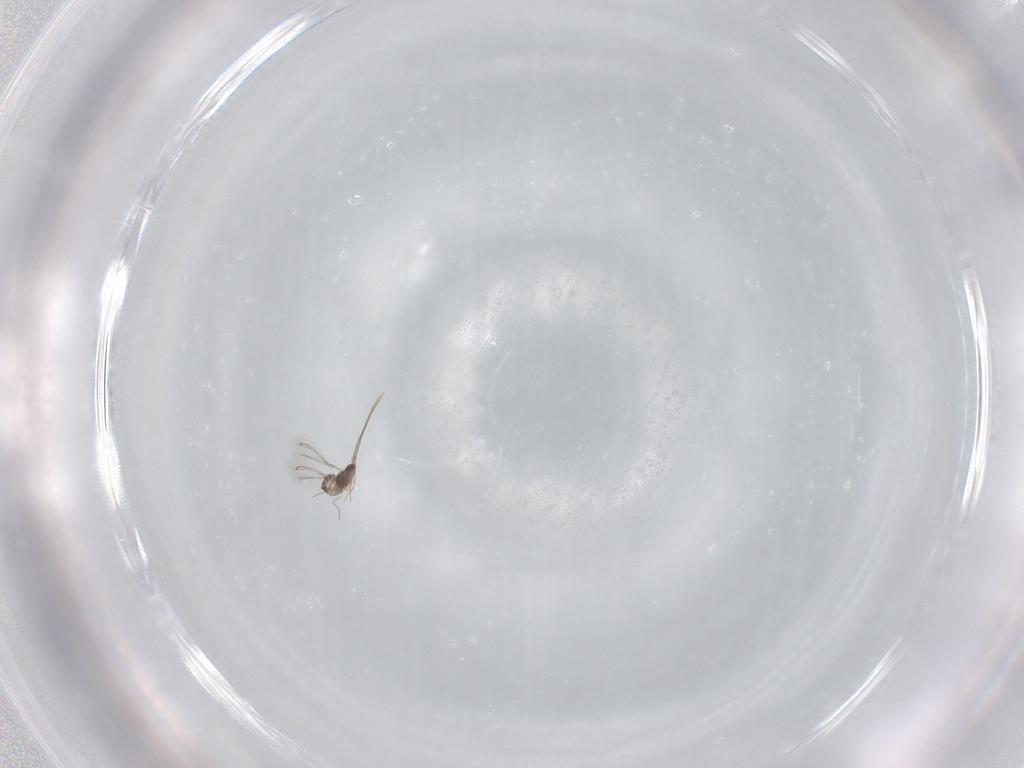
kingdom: Animalia
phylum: Arthropoda
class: Insecta
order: Hymenoptera
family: Mymaridae
